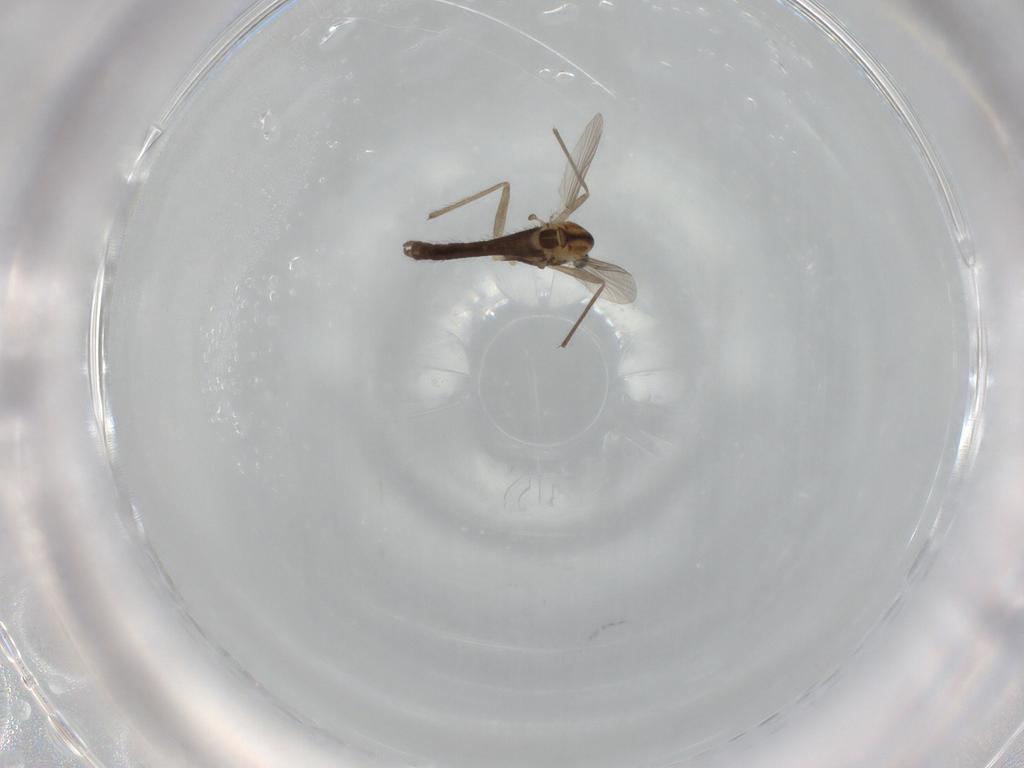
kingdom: Animalia
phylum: Arthropoda
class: Insecta
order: Diptera
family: Chironomidae
